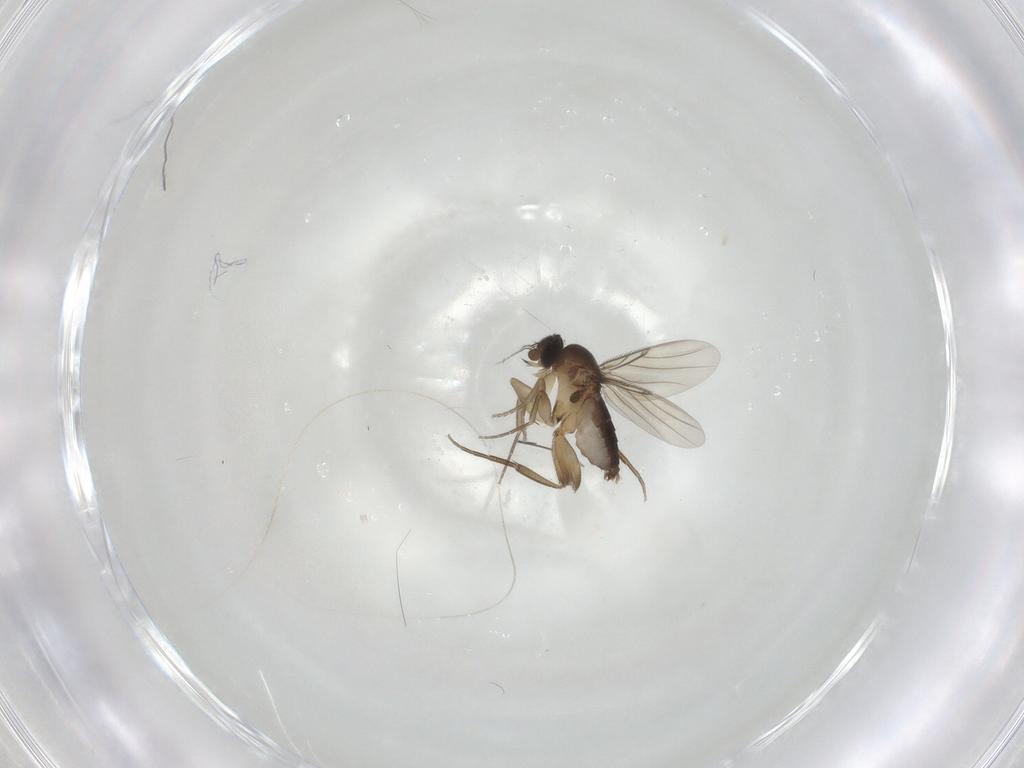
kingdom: Animalia
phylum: Arthropoda
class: Insecta
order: Diptera
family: Phoridae
